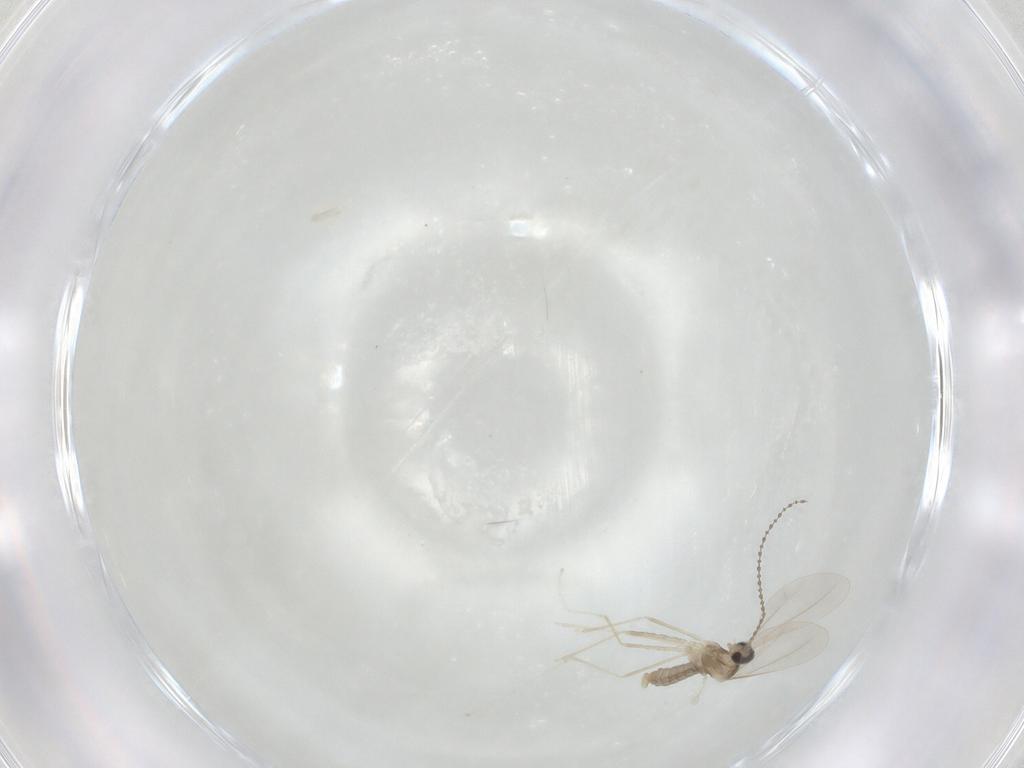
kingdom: Animalia
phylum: Arthropoda
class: Insecta
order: Diptera
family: Cecidomyiidae
